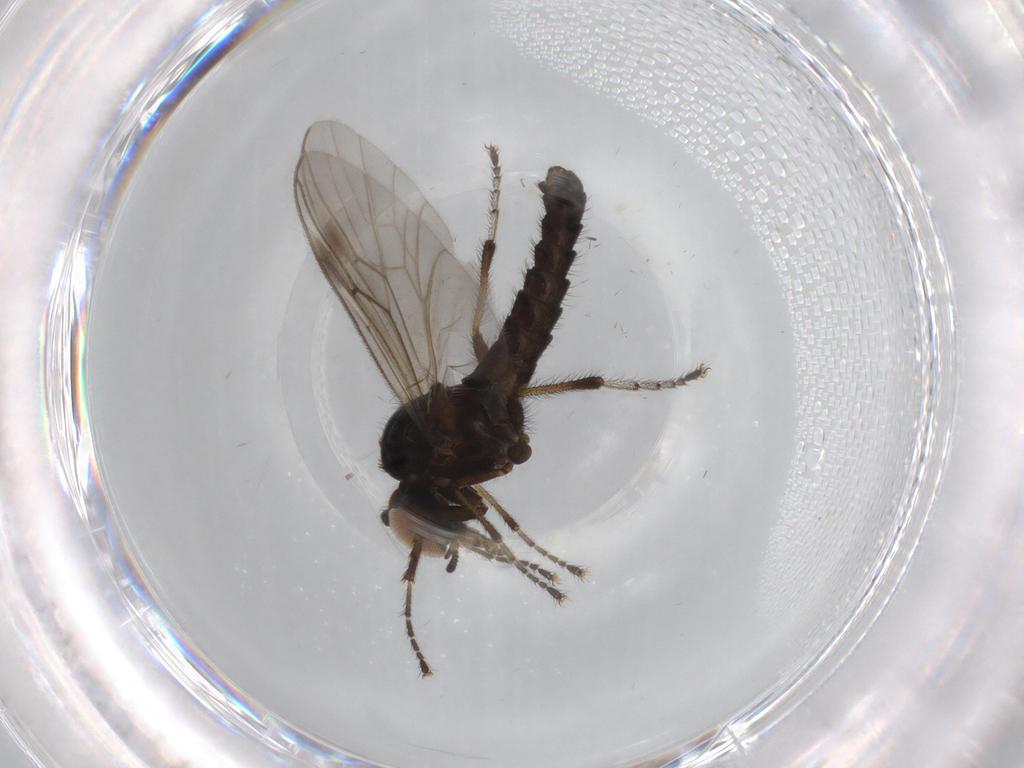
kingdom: Animalia
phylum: Arthropoda
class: Insecta
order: Diptera
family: Bibionidae
